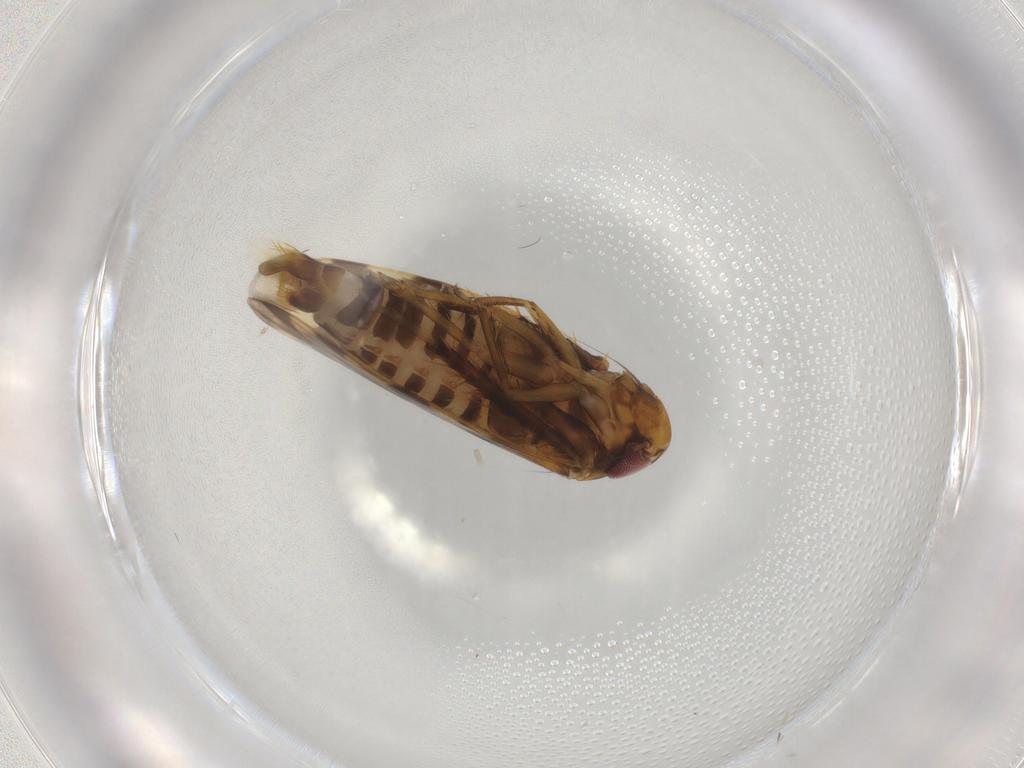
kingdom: Animalia
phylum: Arthropoda
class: Insecta
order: Hemiptera
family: Cicadellidae
